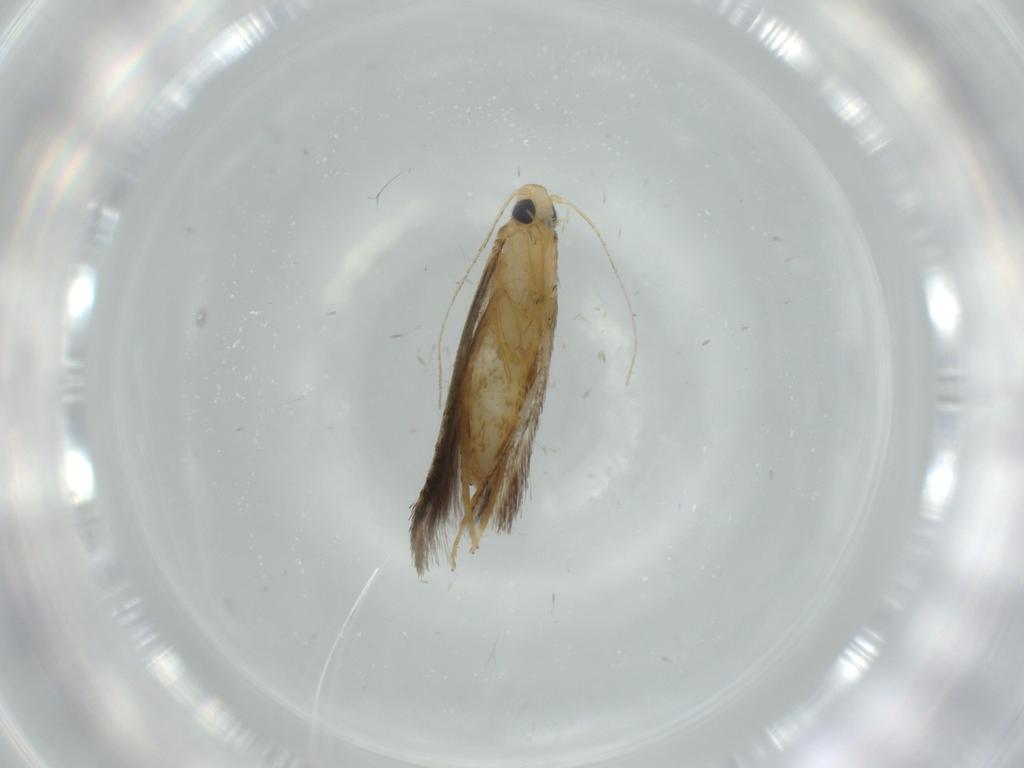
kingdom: Animalia
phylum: Arthropoda
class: Insecta
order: Lepidoptera
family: Tischeriidae
